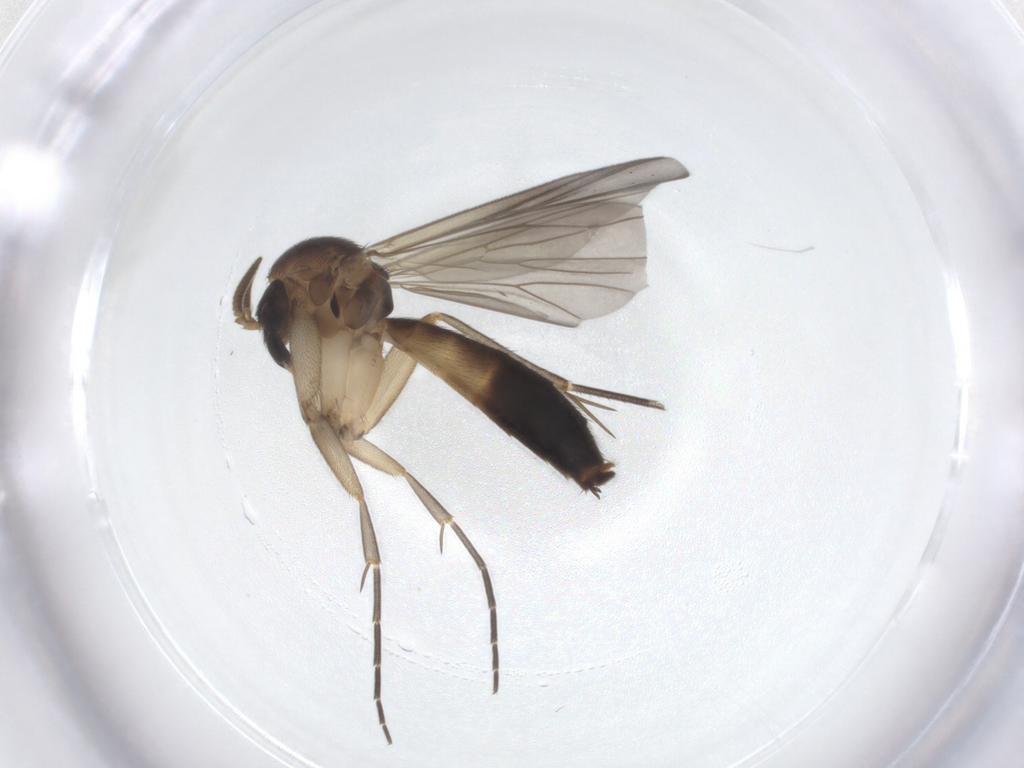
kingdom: Animalia
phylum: Arthropoda
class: Insecta
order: Diptera
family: Mycetophilidae
